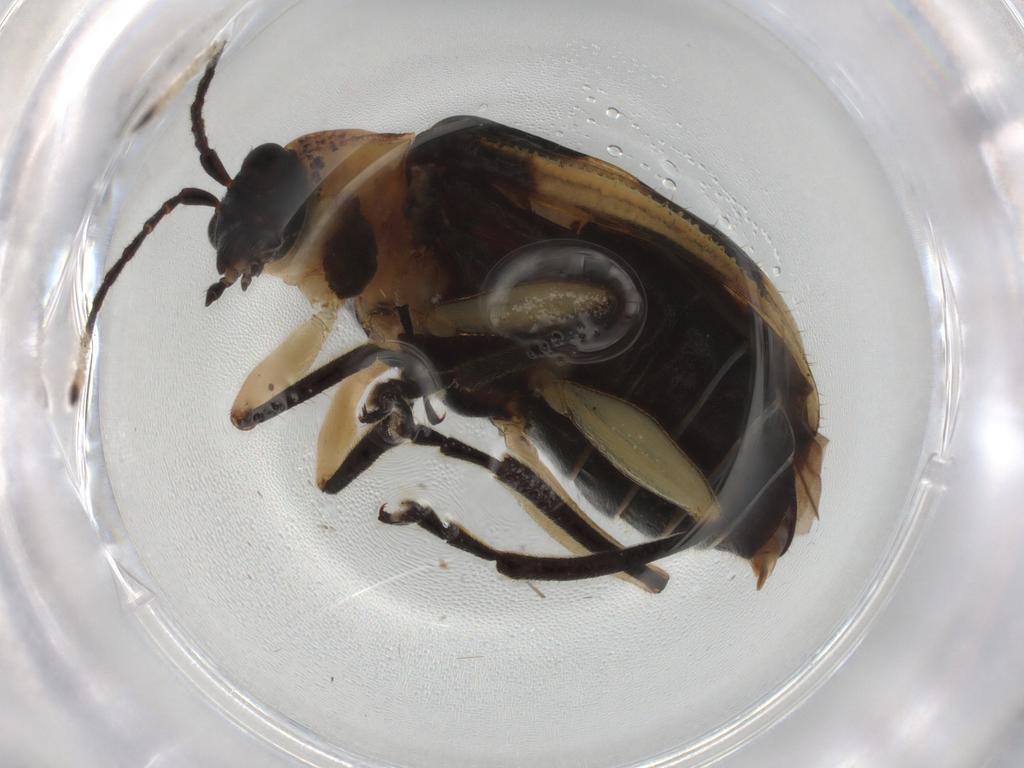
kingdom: Animalia
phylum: Arthropoda
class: Insecta
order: Coleoptera
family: Chrysomelidae
